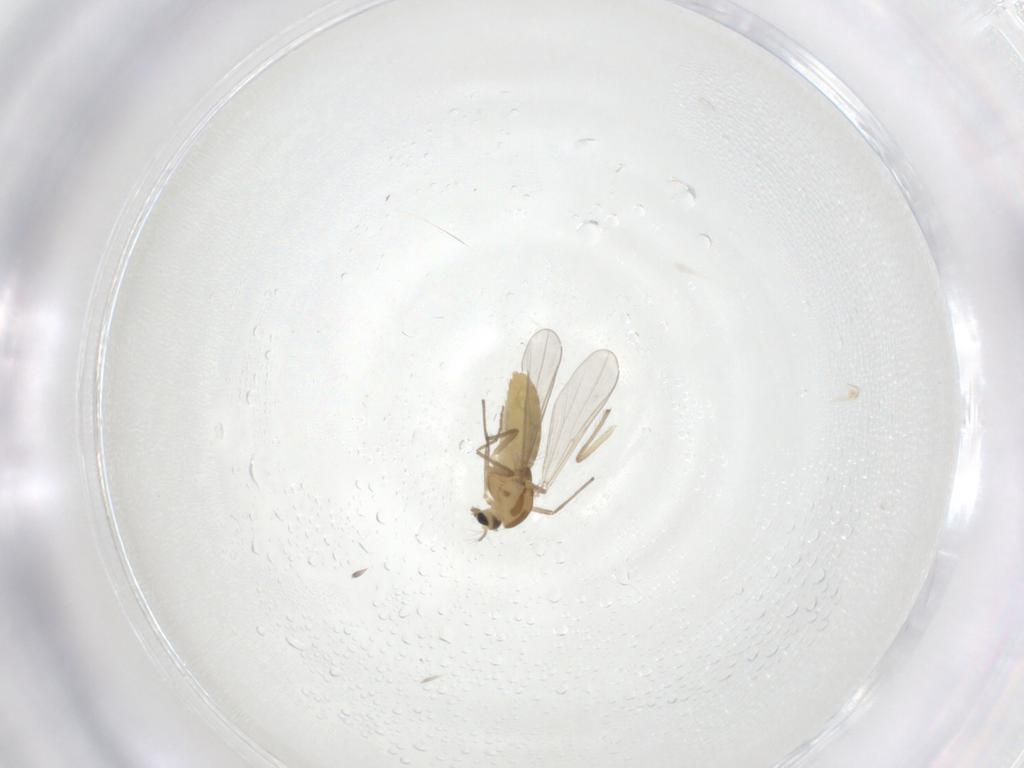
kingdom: Animalia
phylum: Arthropoda
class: Insecta
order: Diptera
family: Chironomidae
